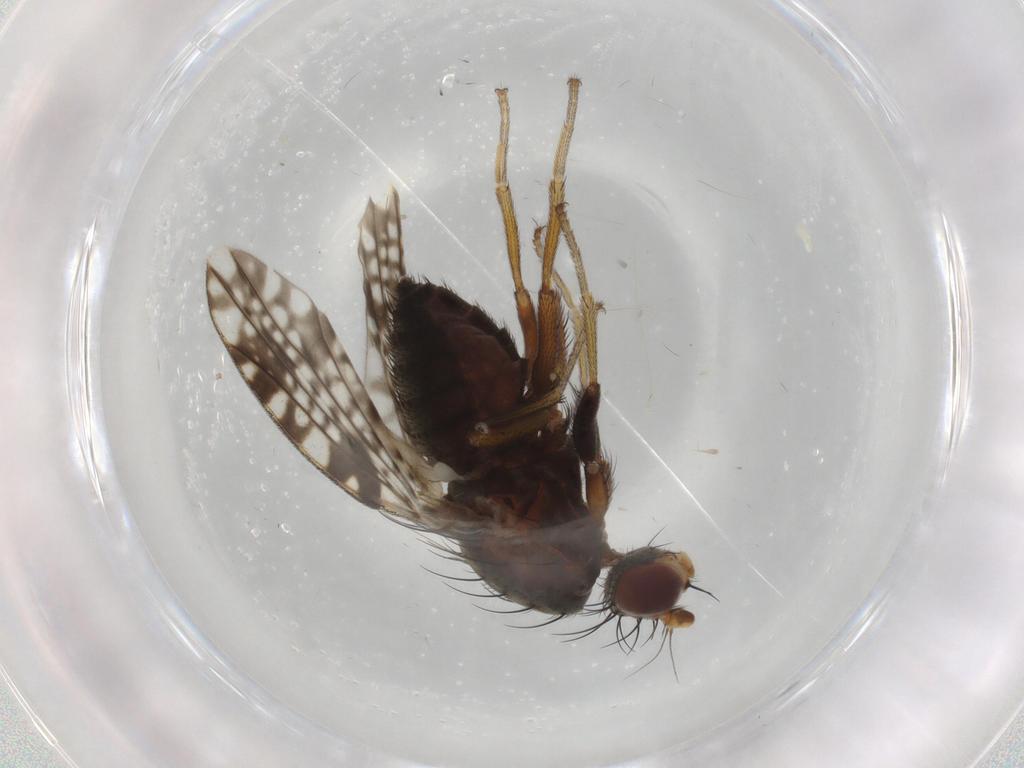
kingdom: Animalia
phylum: Arthropoda
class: Insecta
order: Diptera
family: Tephritidae
